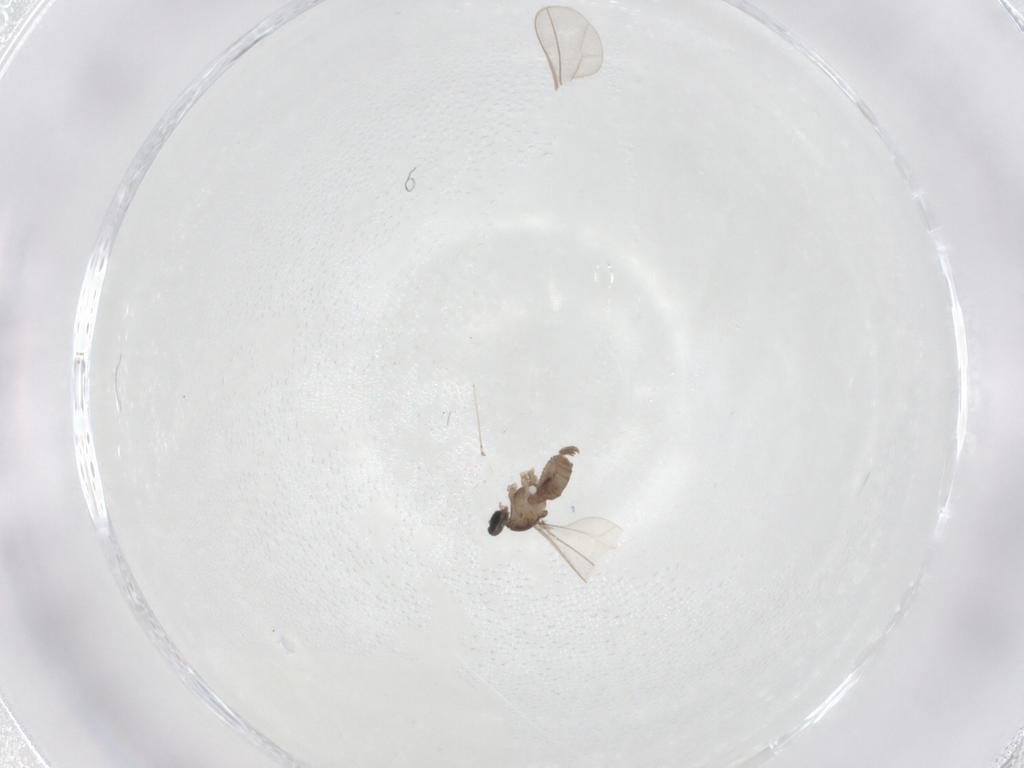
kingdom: Animalia
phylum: Arthropoda
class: Insecta
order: Diptera
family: Cecidomyiidae
